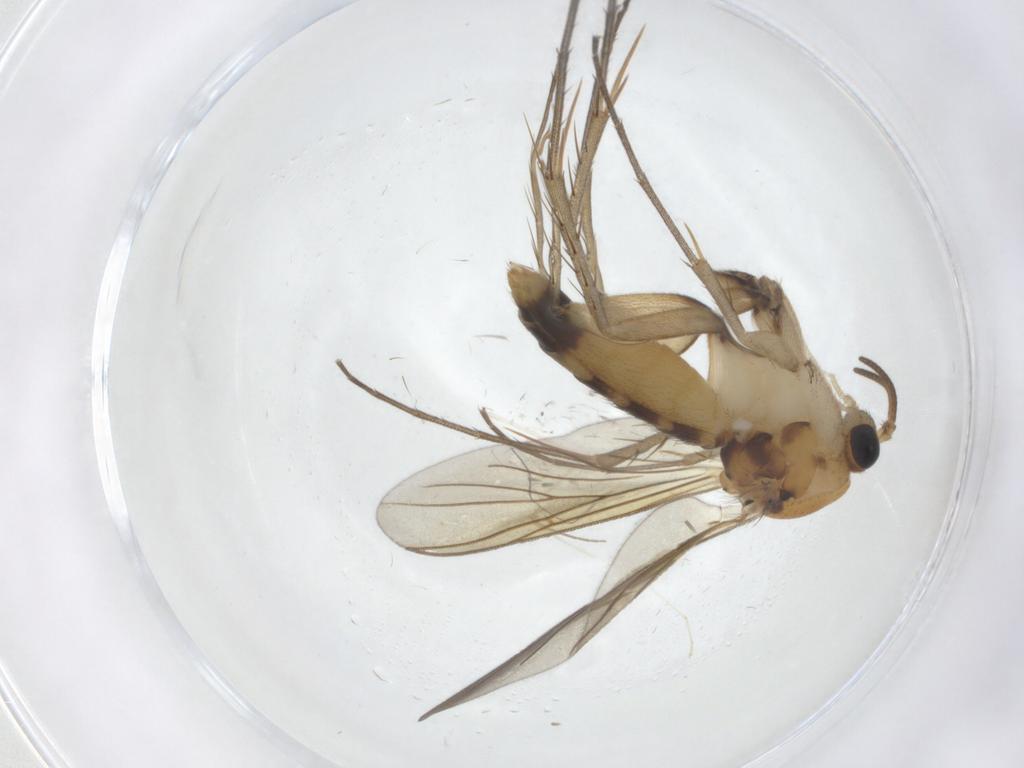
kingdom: Animalia
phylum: Arthropoda
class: Insecta
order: Diptera
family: Mycetophilidae
